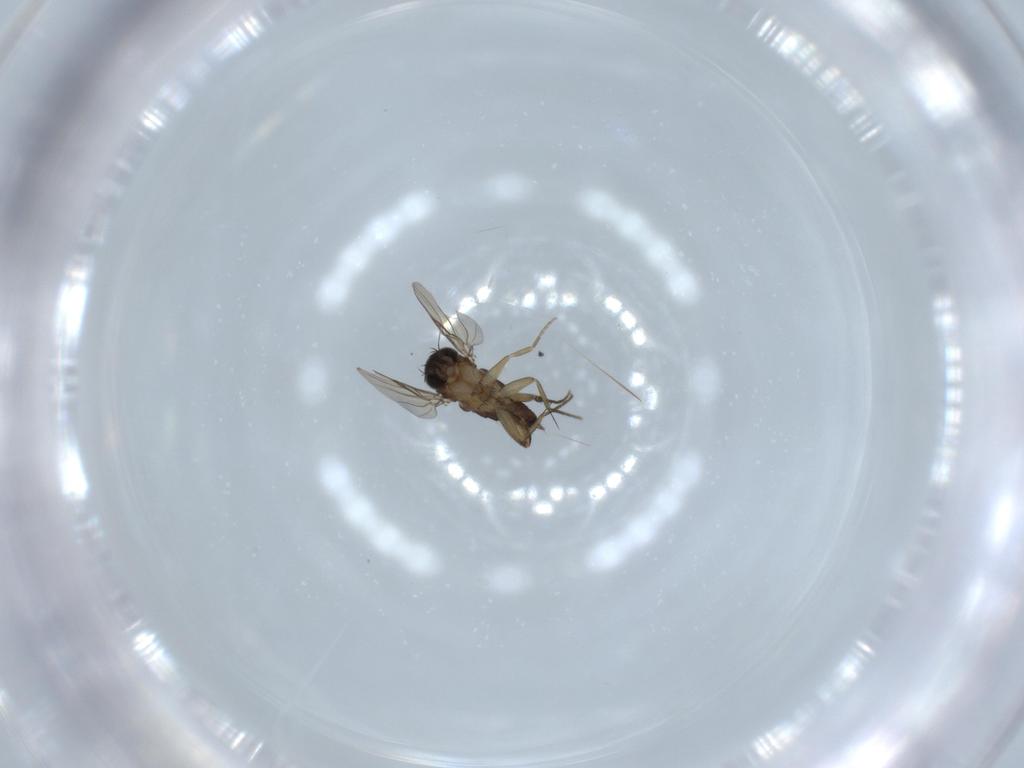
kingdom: Animalia
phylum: Arthropoda
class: Insecta
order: Diptera
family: Phoridae
